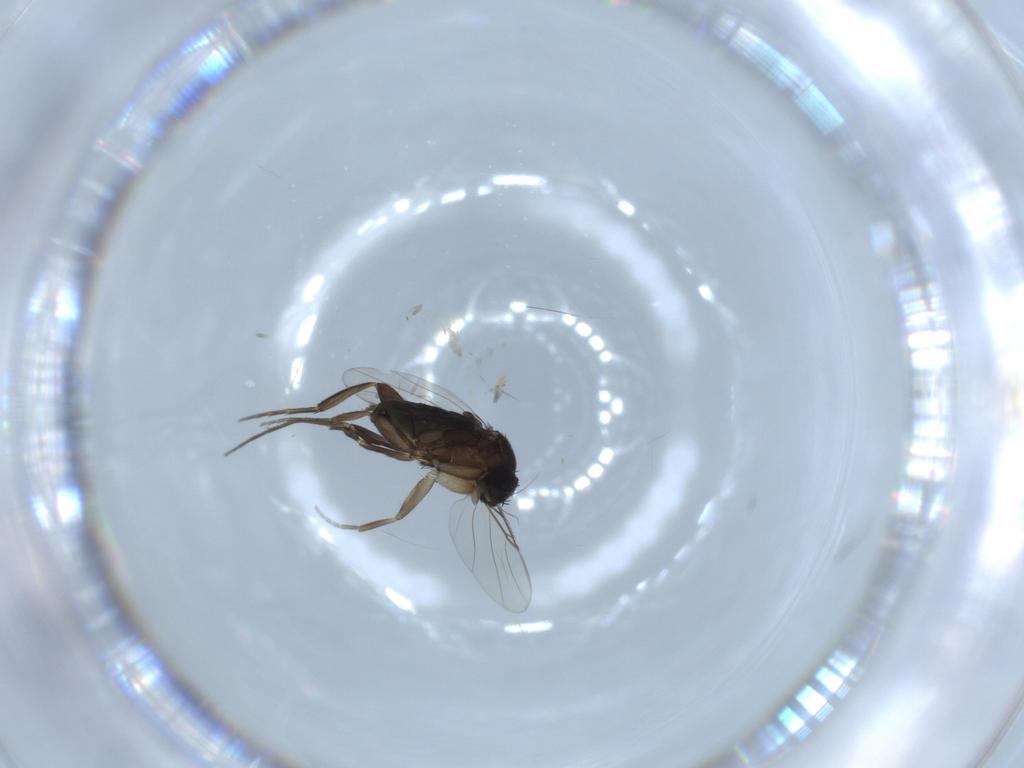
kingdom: Animalia
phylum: Arthropoda
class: Insecta
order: Diptera
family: Phoridae
